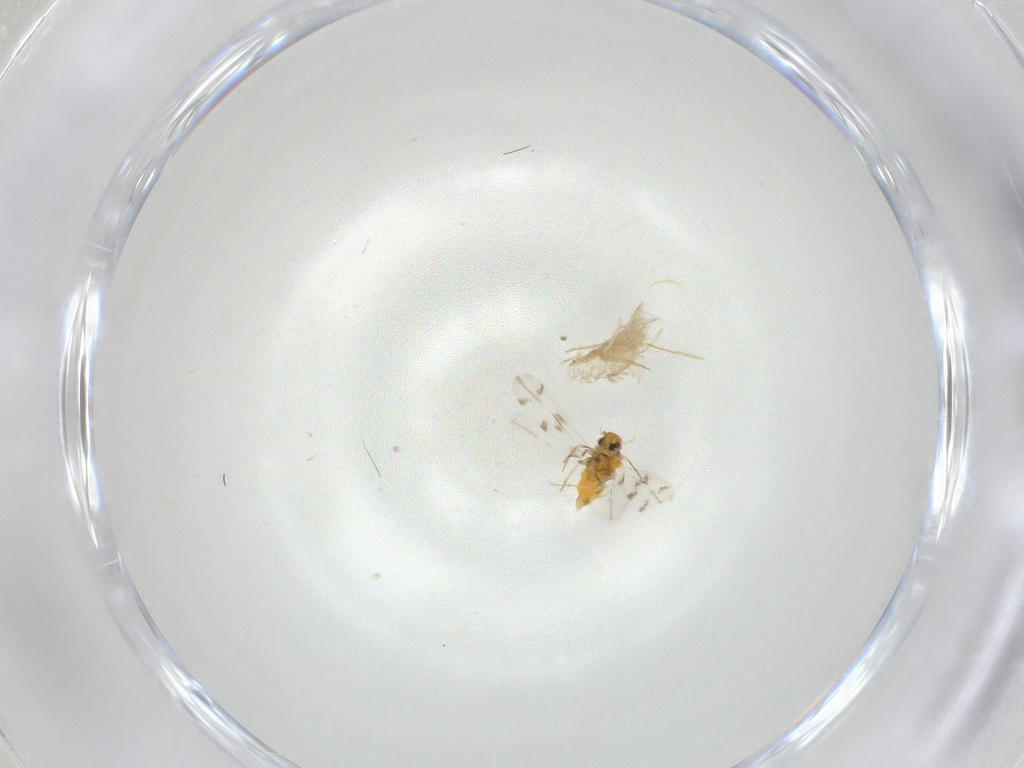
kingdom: Animalia
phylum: Arthropoda
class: Insecta
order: Hemiptera
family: Aleyrodidae
